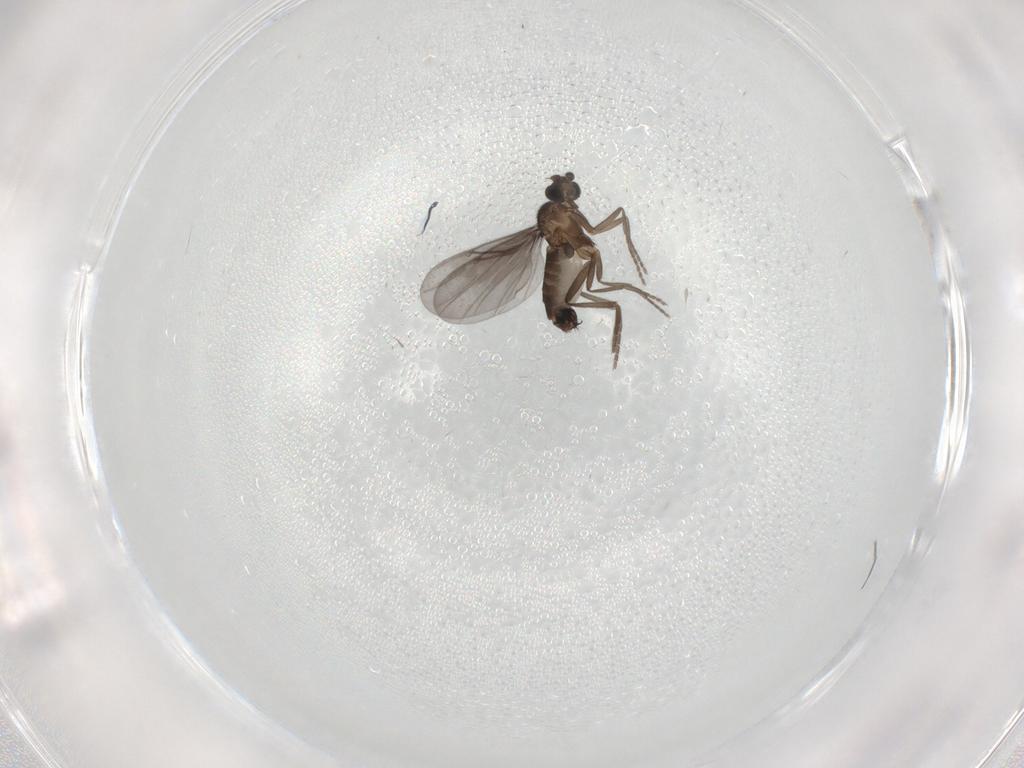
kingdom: Animalia
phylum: Arthropoda
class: Insecta
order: Diptera
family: Phoridae
